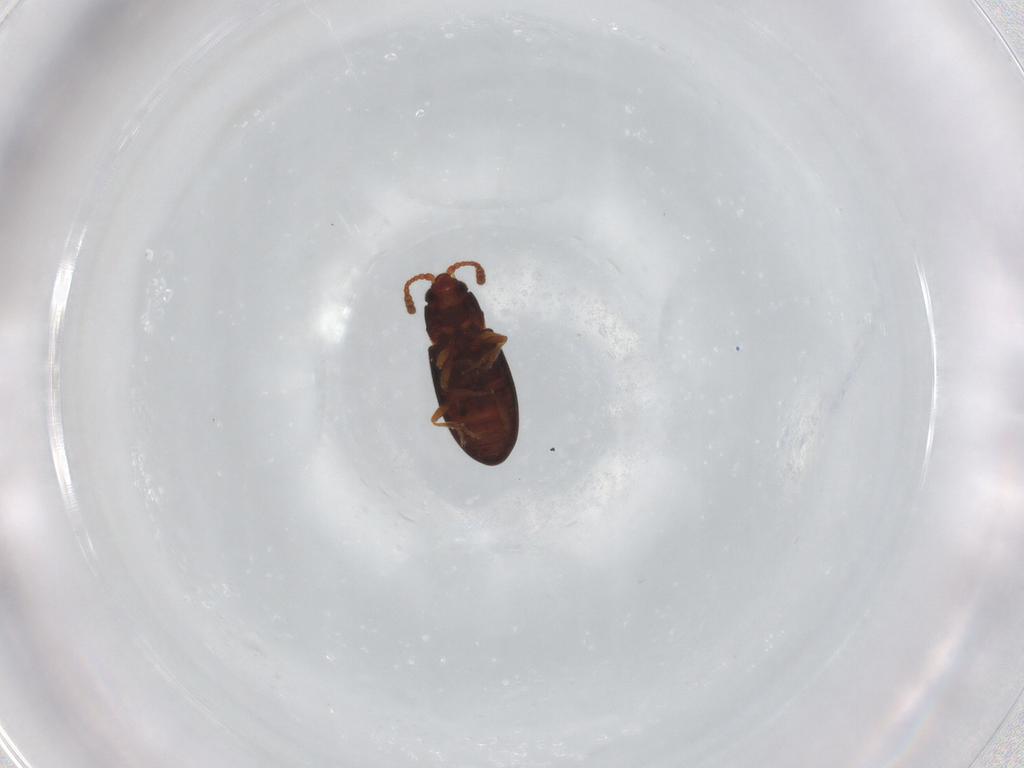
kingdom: Animalia
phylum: Arthropoda
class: Insecta
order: Coleoptera
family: Cryptophagidae
